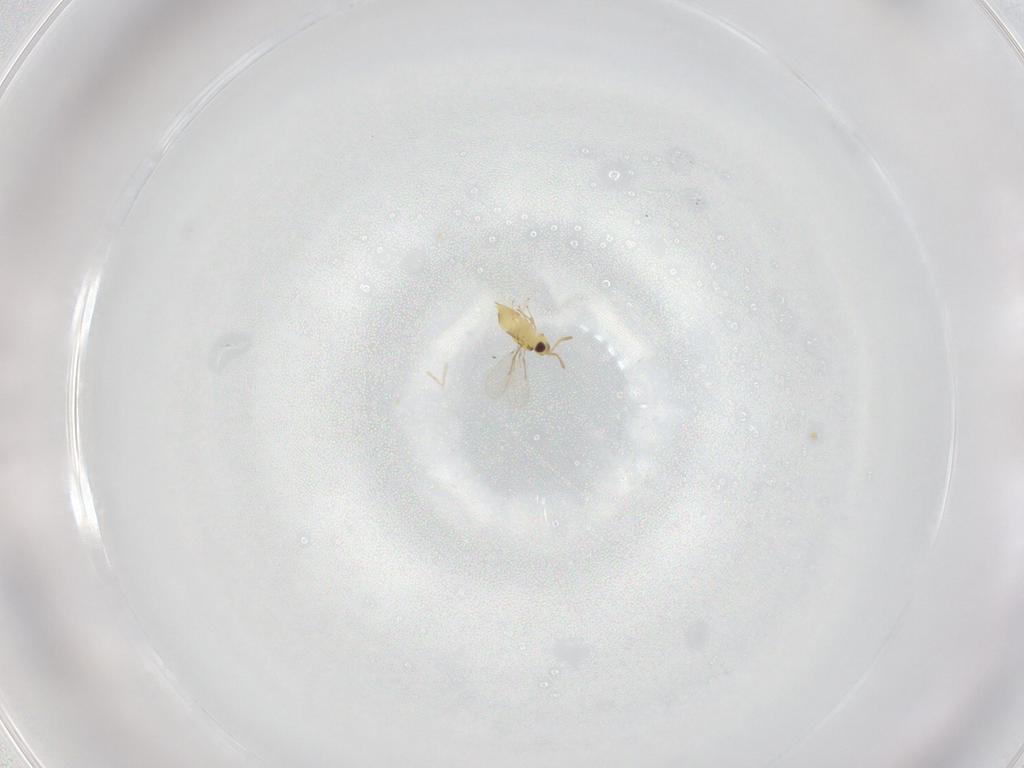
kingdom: Animalia
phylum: Arthropoda
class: Insecta
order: Hymenoptera
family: Aphelinidae
